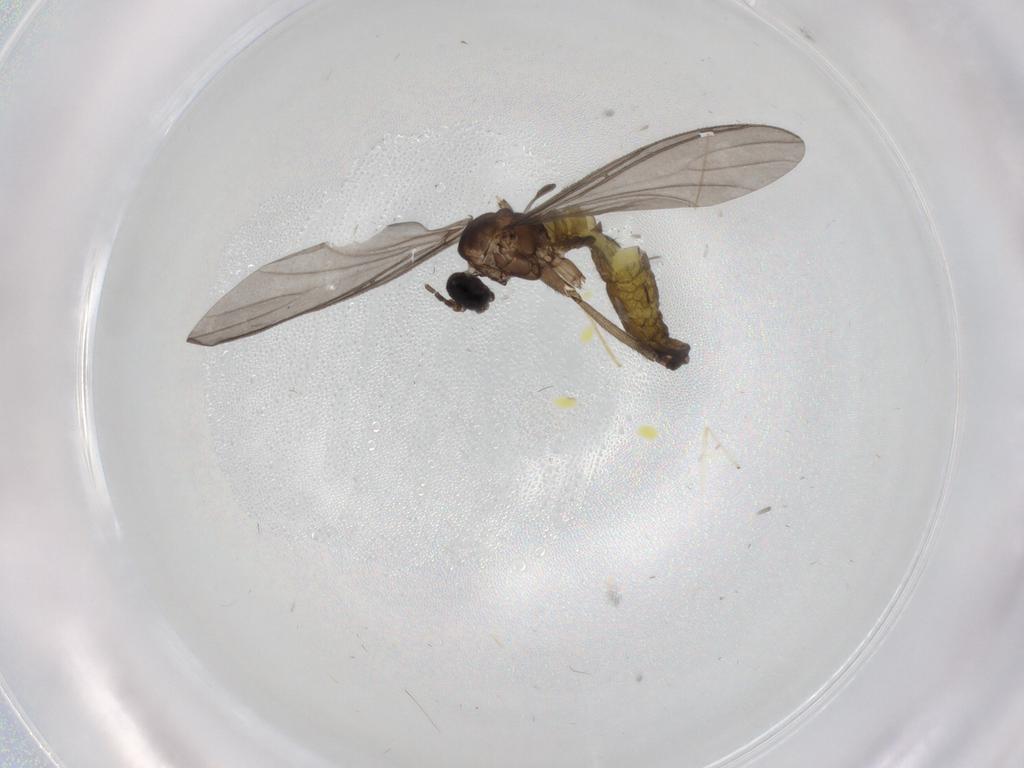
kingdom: Animalia
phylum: Arthropoda
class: Insecta
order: Diptera
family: Sciaridae
